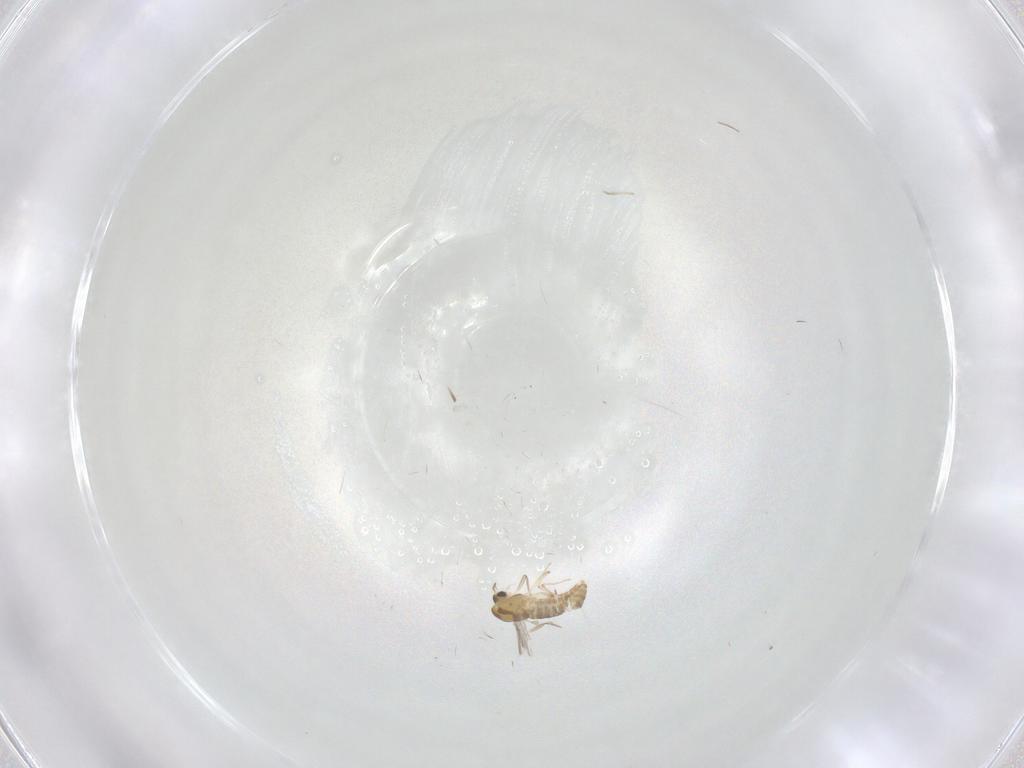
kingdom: Animalia
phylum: Arthropoda
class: Insecta
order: Diptera
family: Chironomidae
